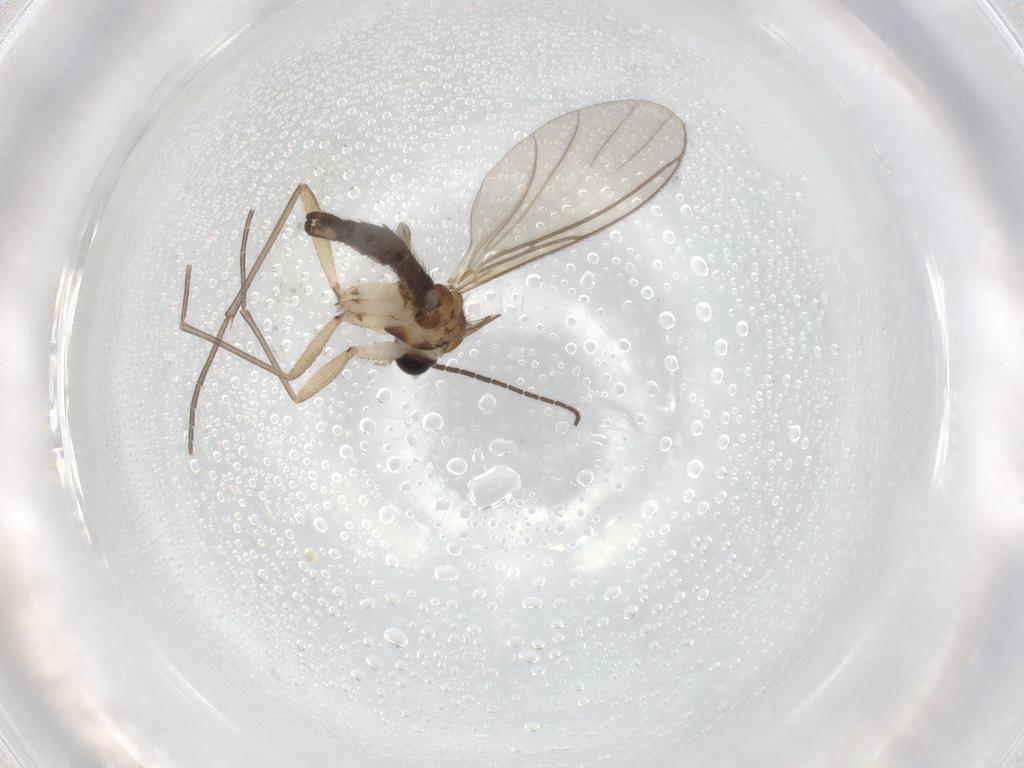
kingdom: Animalia
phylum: Arthropoda
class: Insecta
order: Diptera
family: Sciaridae
